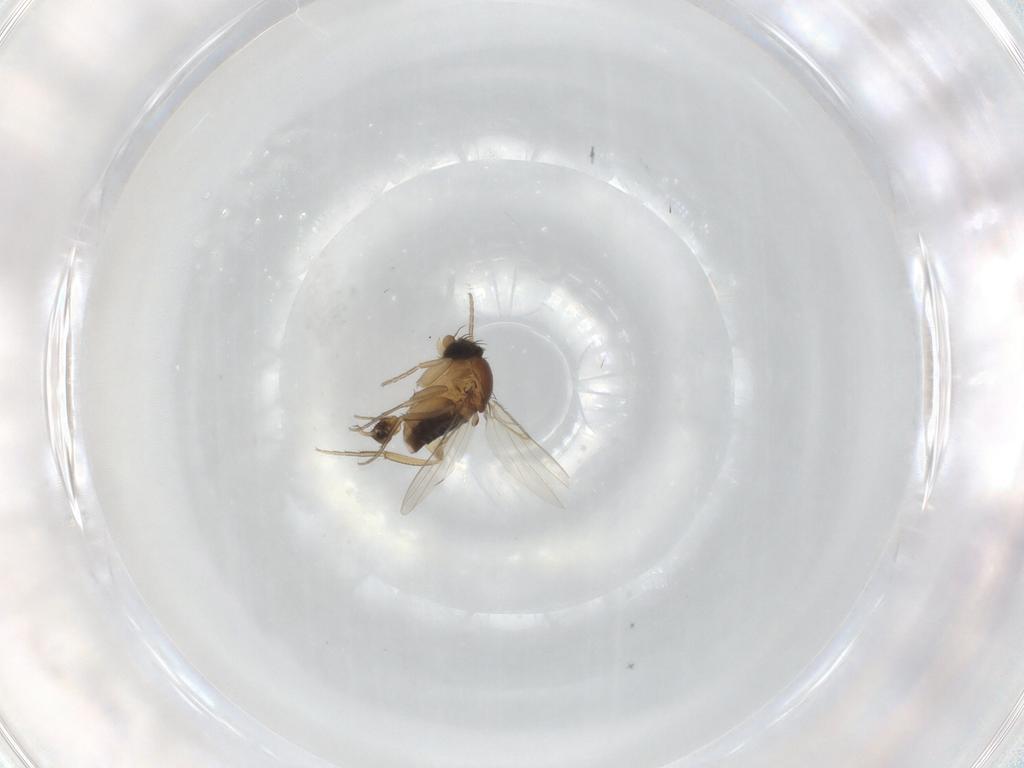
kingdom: Animalia
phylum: Arthropoda
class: Insecta
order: Diptera
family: Phoridae
